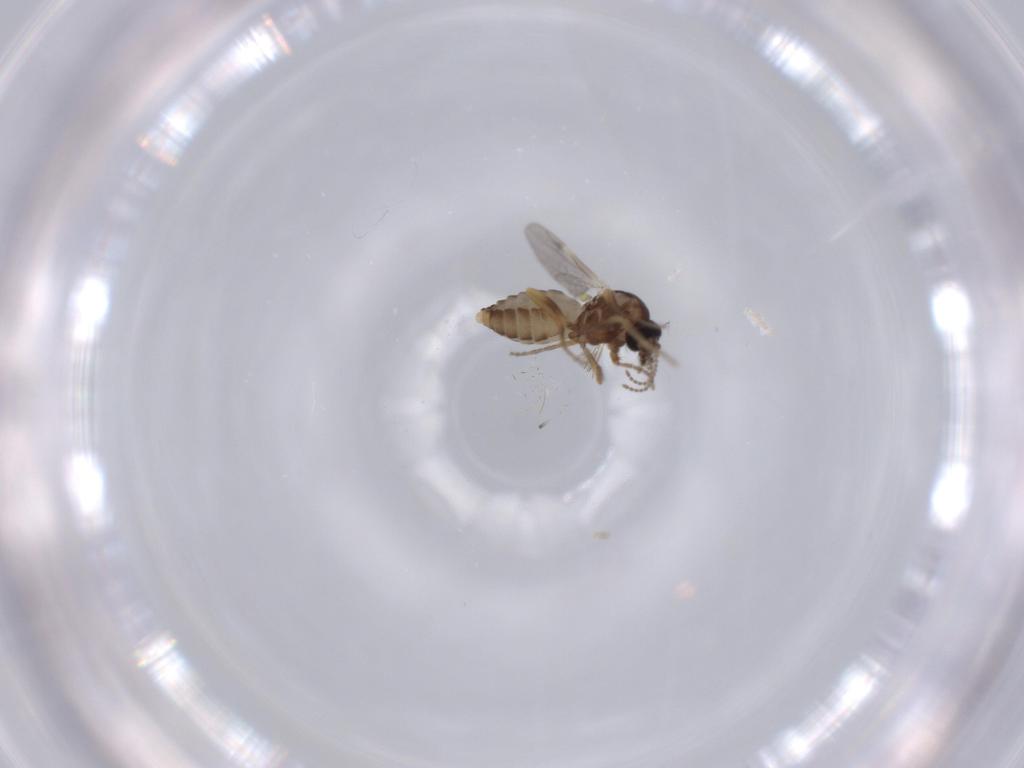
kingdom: Animalia
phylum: Arthropoda
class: Insecta
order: Diptera
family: Ceratopogonidae
